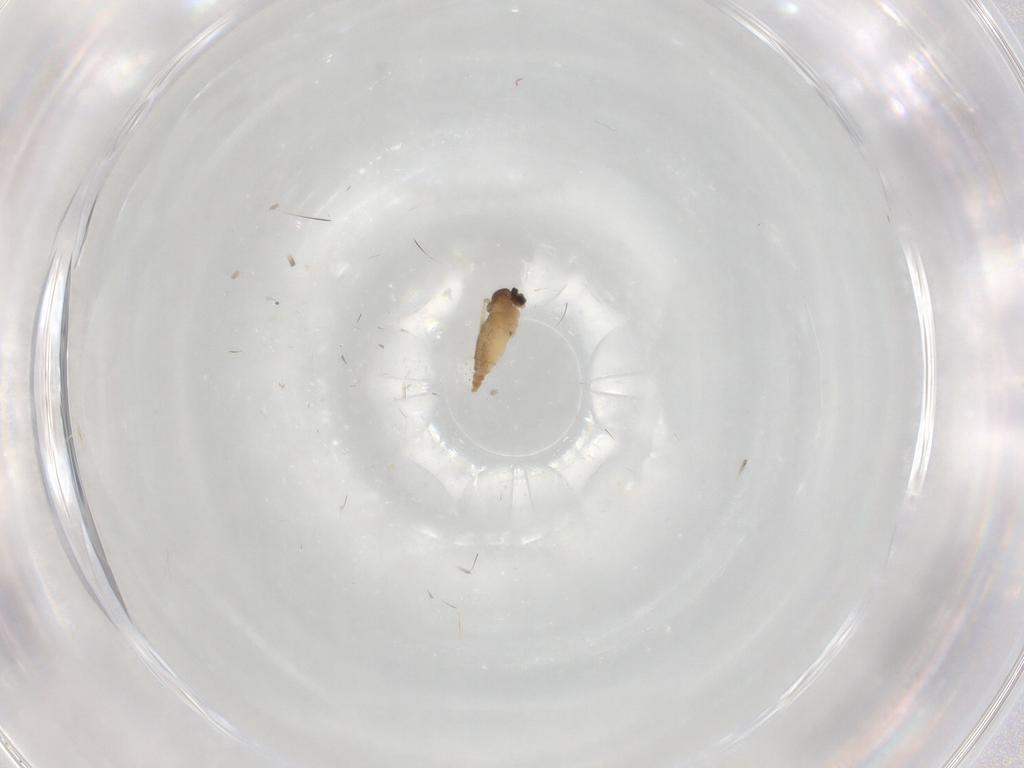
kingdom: Animalia
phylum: Arthropoda
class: Insecta
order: Diptera
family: Cecidomyiidae
